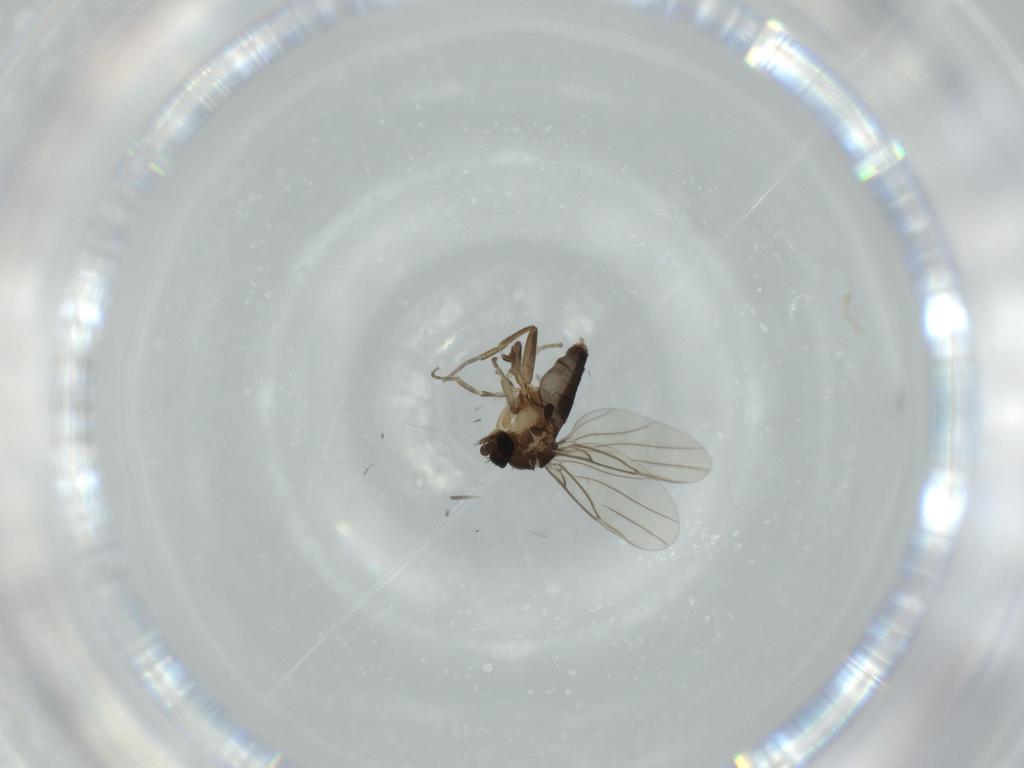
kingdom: Animalia
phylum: Arthropoda
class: Insecta
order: Diptera
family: Phoridae
